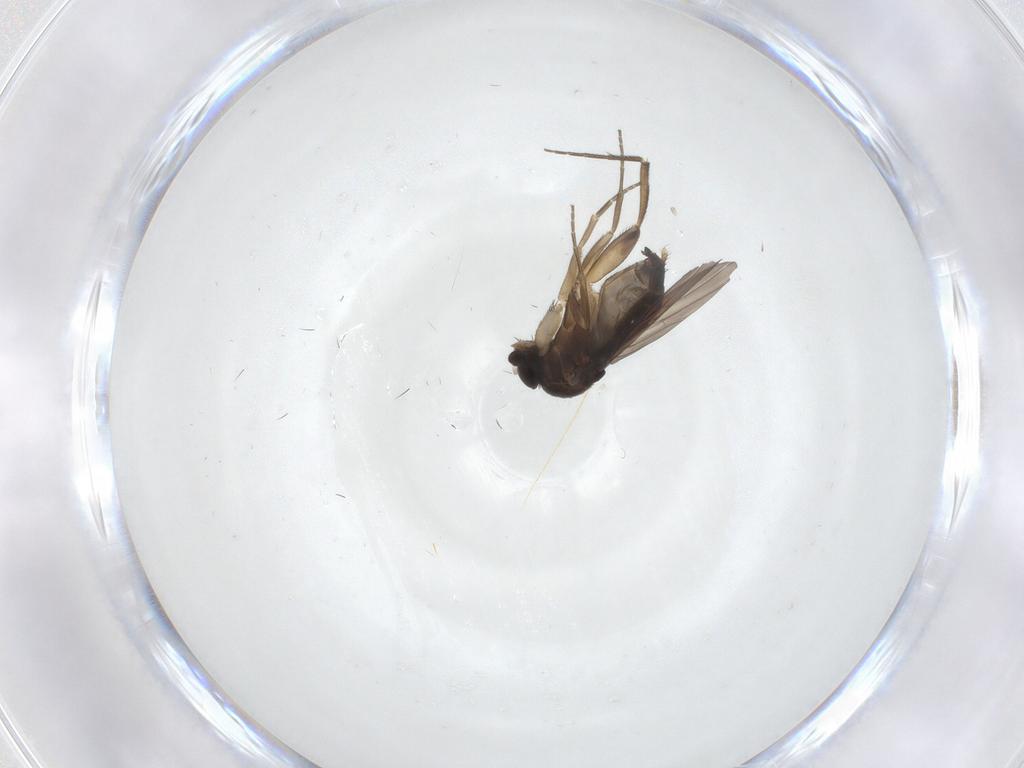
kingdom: Animalia
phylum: Arthropoda
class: Insecta
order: Diptera
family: Phoridae
